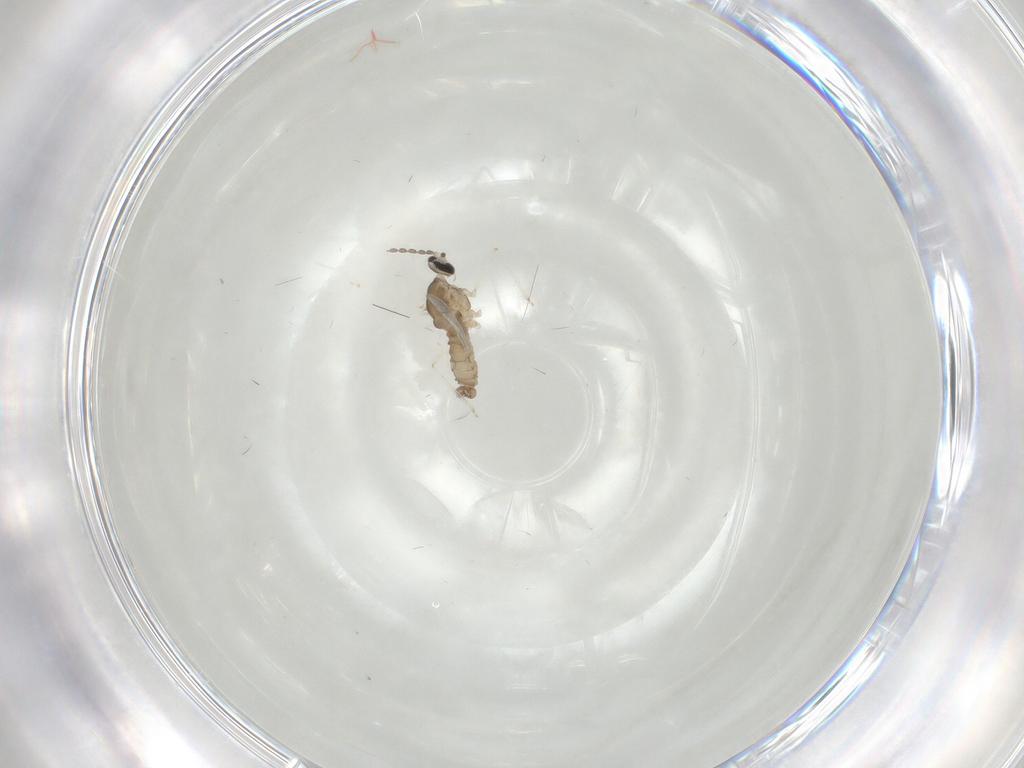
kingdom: Animalia
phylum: Arthropoda
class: Insecta
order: Diptera
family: Cecidomyiidae
